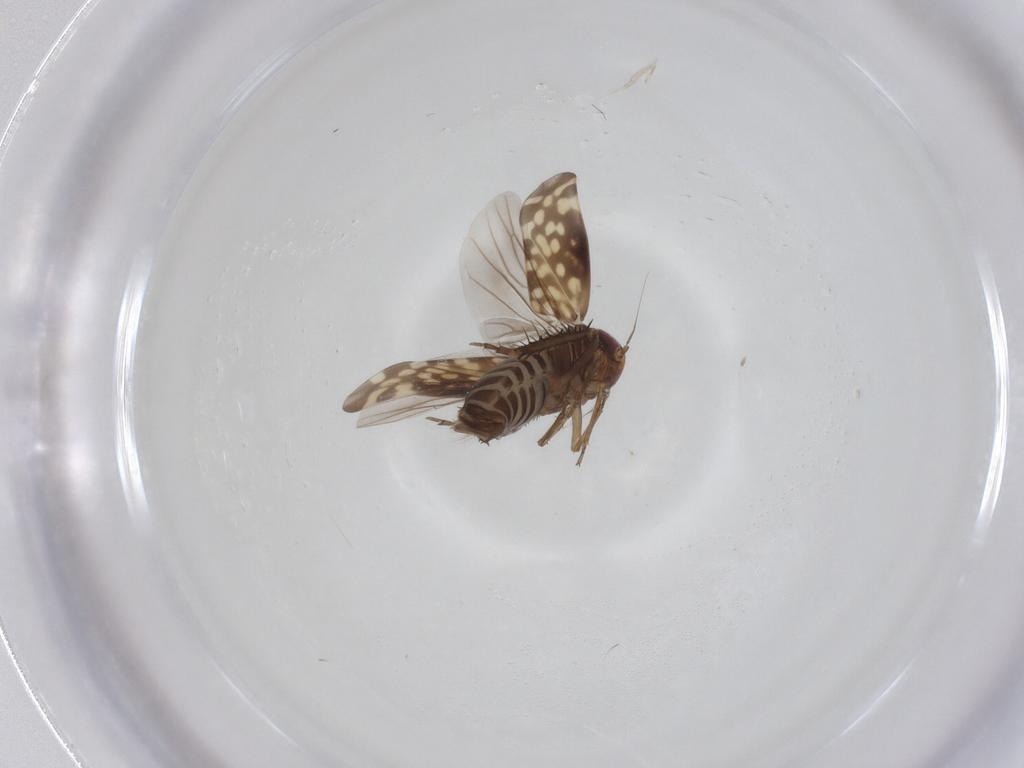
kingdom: Animalia
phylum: Arthropoda
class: Insecta
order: Hemiptera
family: Cicadellidae
